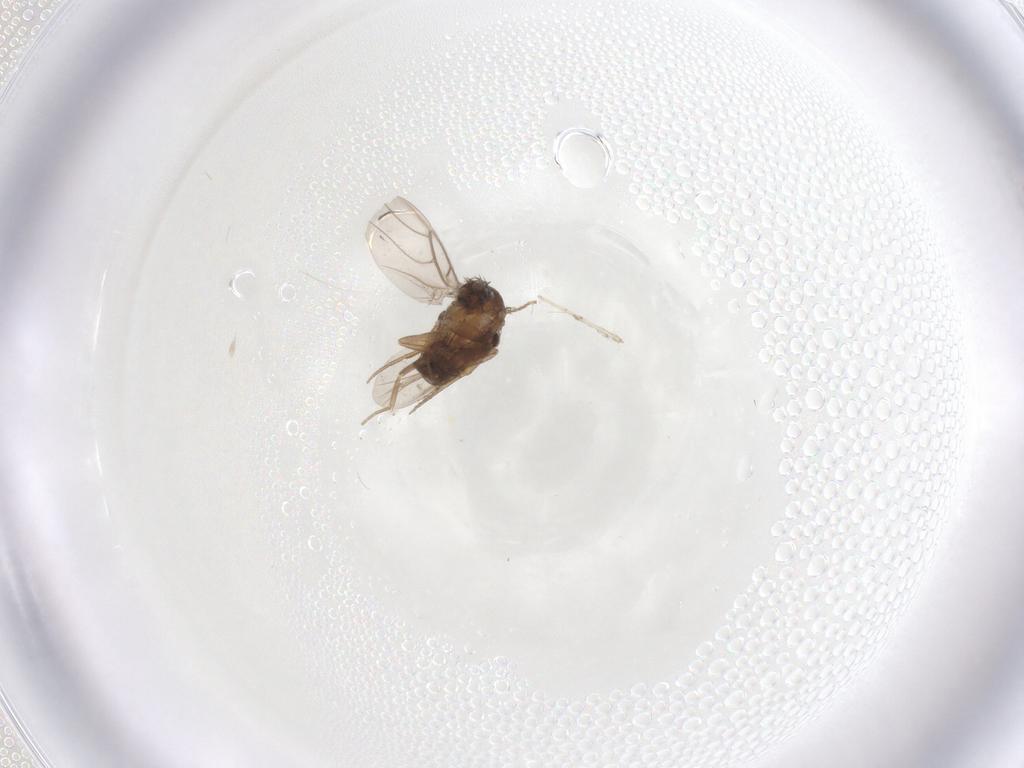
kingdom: Animalia
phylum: Arthropoda
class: Insecta
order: Diptera
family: Phoridae
